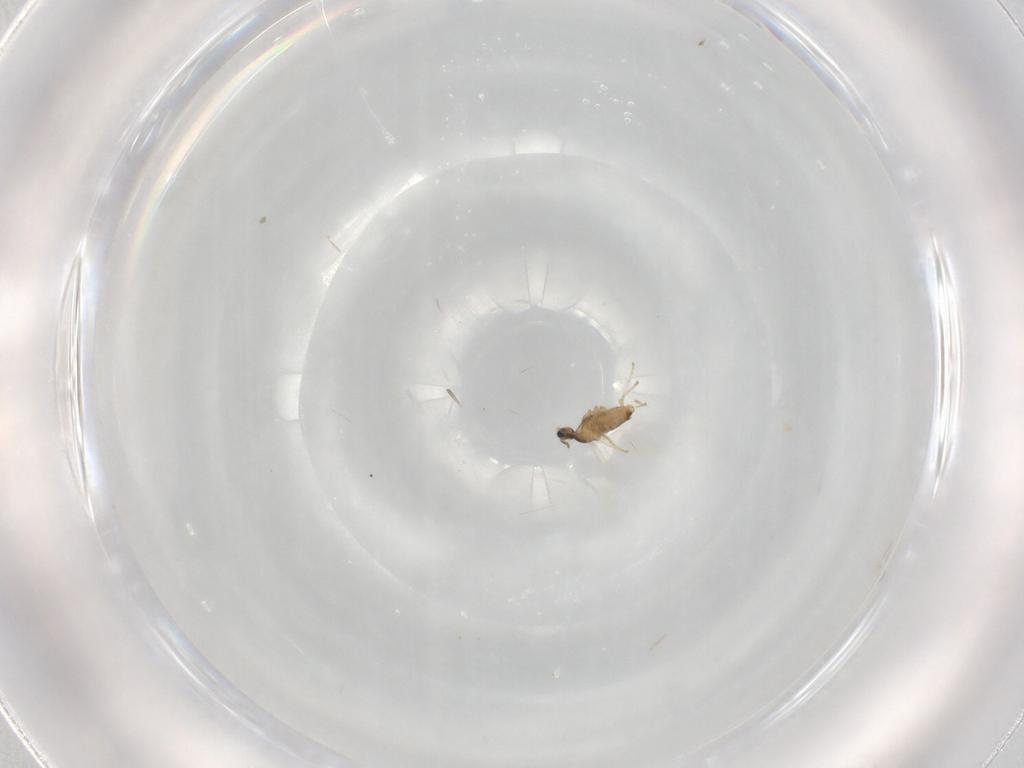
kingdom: Animalia
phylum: Arthropoda
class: Insecta
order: Diptera
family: Cecidomyiidae
